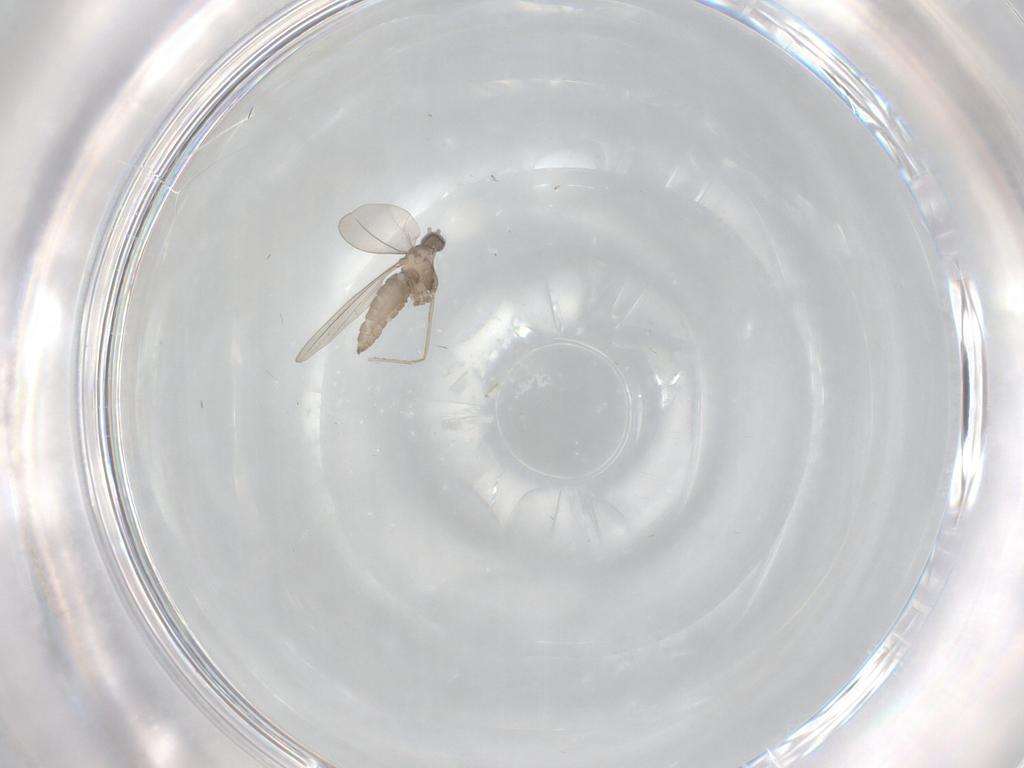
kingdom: Animalia
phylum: Arthropoda
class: Insecta
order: Diptera
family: Cecidomyiidae
